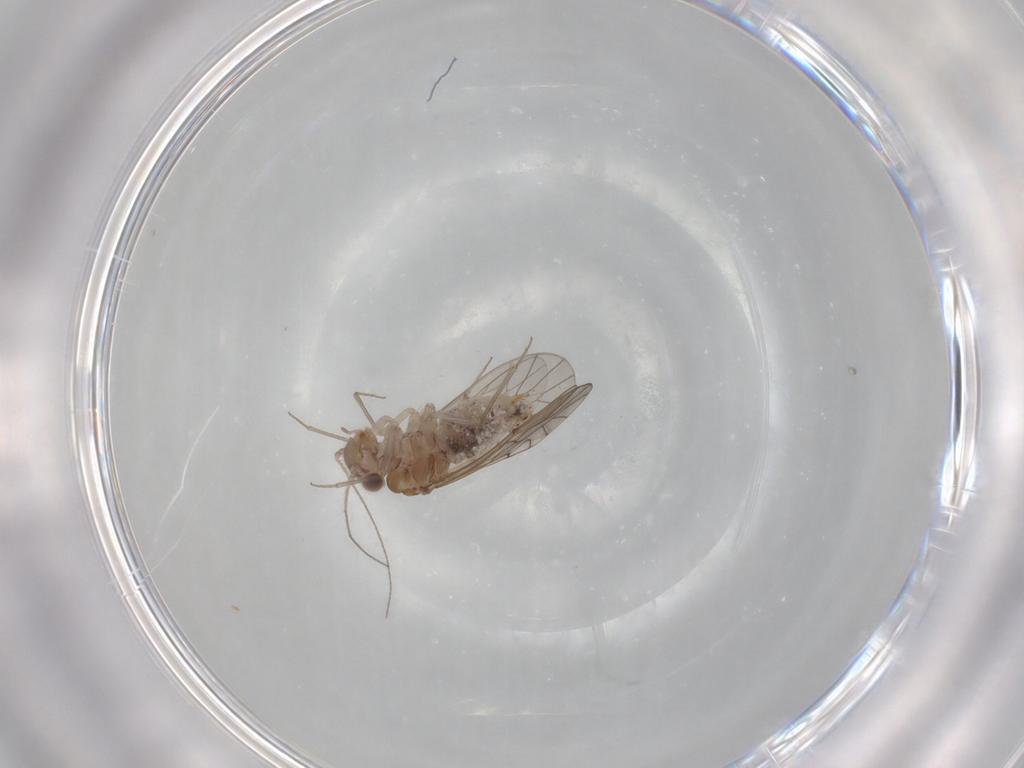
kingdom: Animalia
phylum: Arthropoda
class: Insecta
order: Psocodea
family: Lachesillidae
